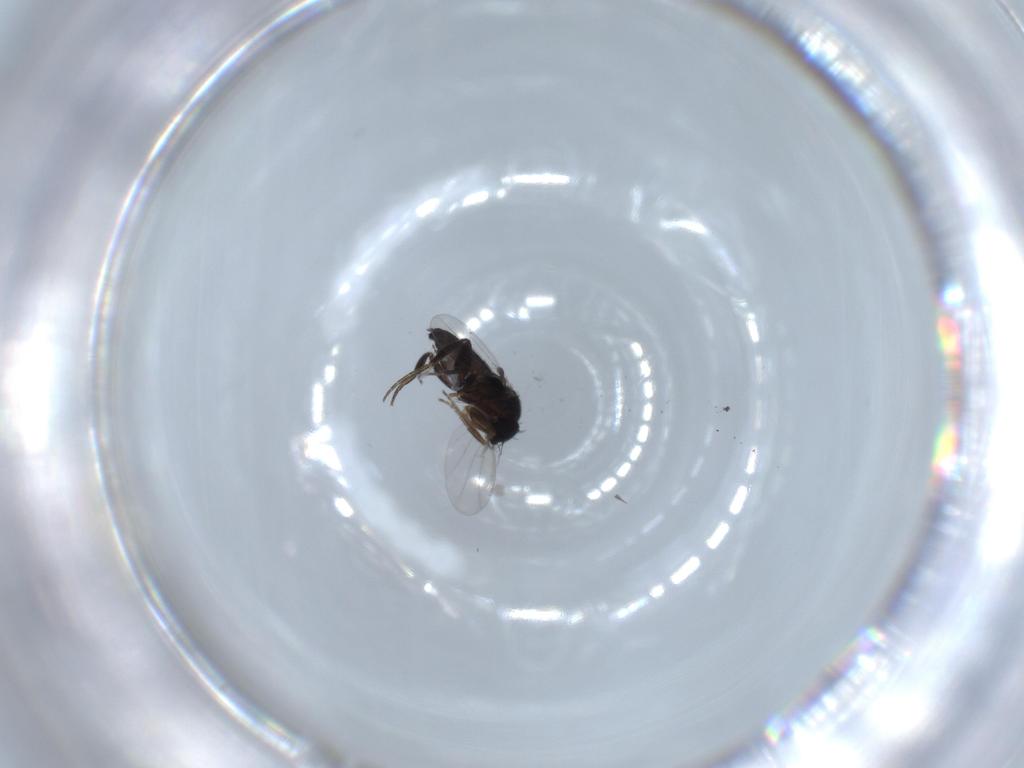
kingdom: Animalia
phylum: Arthropoda
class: Insecta
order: Diptera
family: Phoridae
